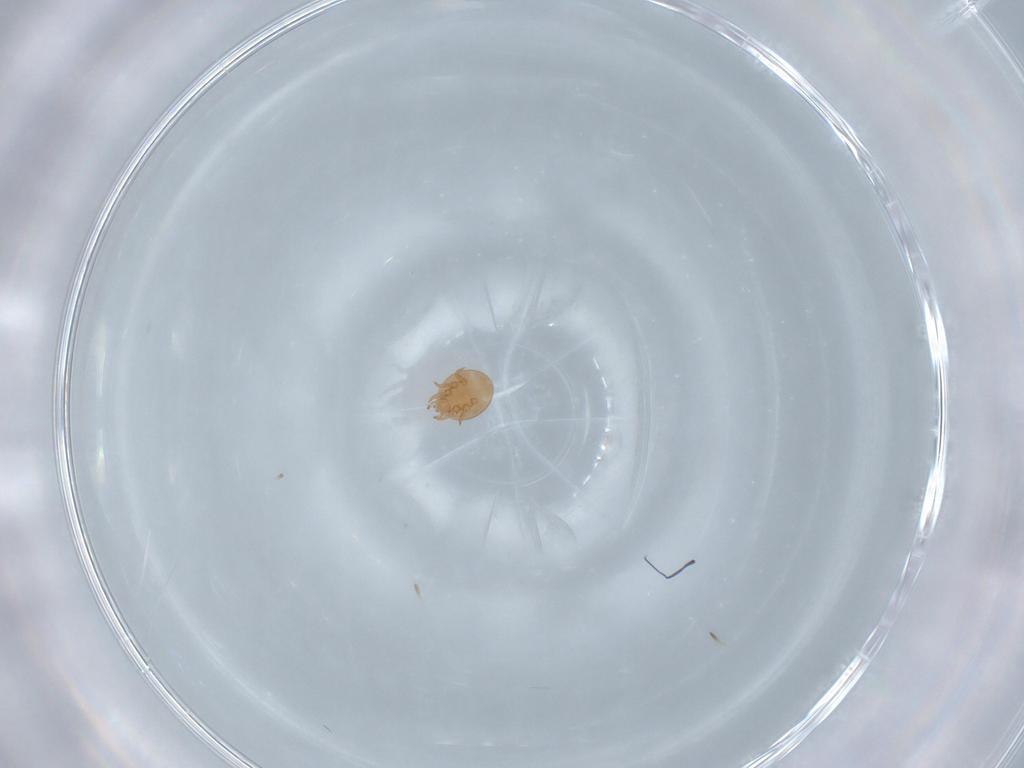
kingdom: Animalia
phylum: Arthropoda
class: Arachnida
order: Mesostigmata
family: Trematuridae
